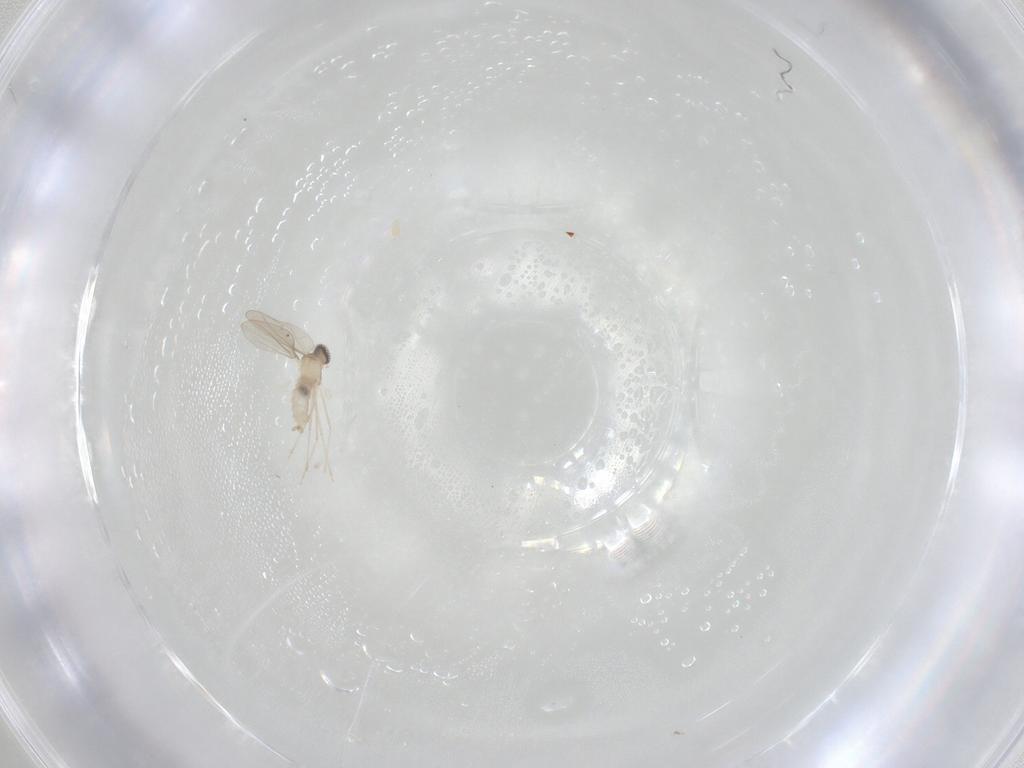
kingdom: Animalia
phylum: Arthropoda
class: Insecta
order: Diptera
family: Cecidomyiidae
